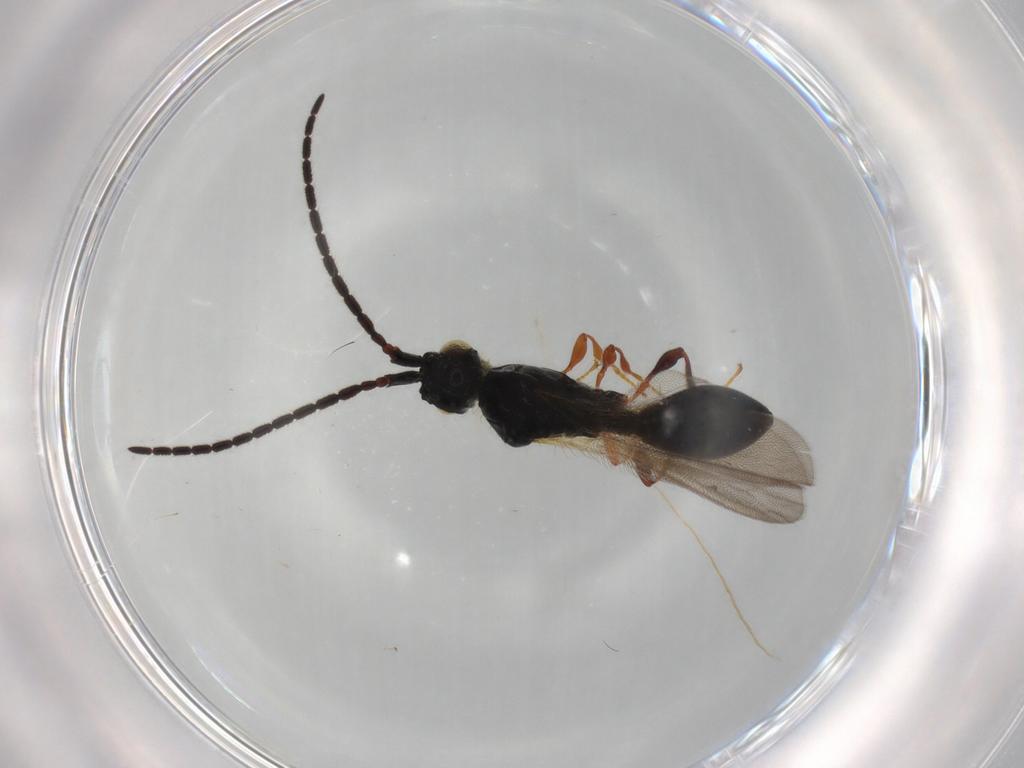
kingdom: Animalia
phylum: Arthropoda
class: Insecta
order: Hymenoptera
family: Diapriidae
